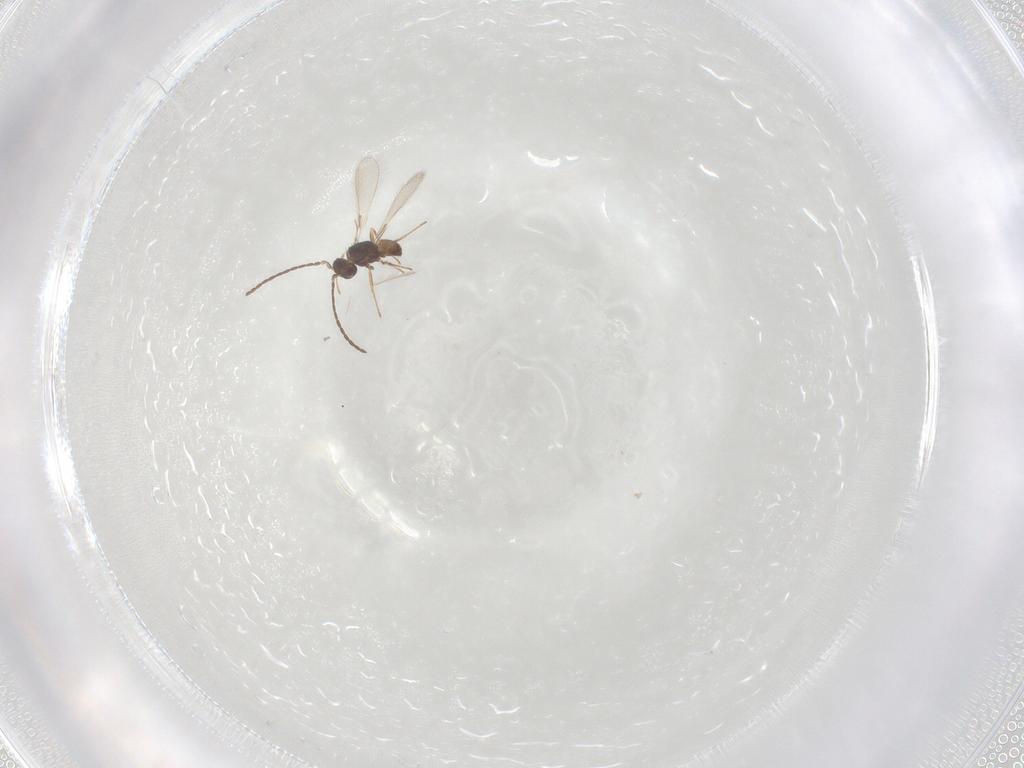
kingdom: Animalia
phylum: Arthropoda
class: Insecta
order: Hymenoptera
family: Mymaridae
